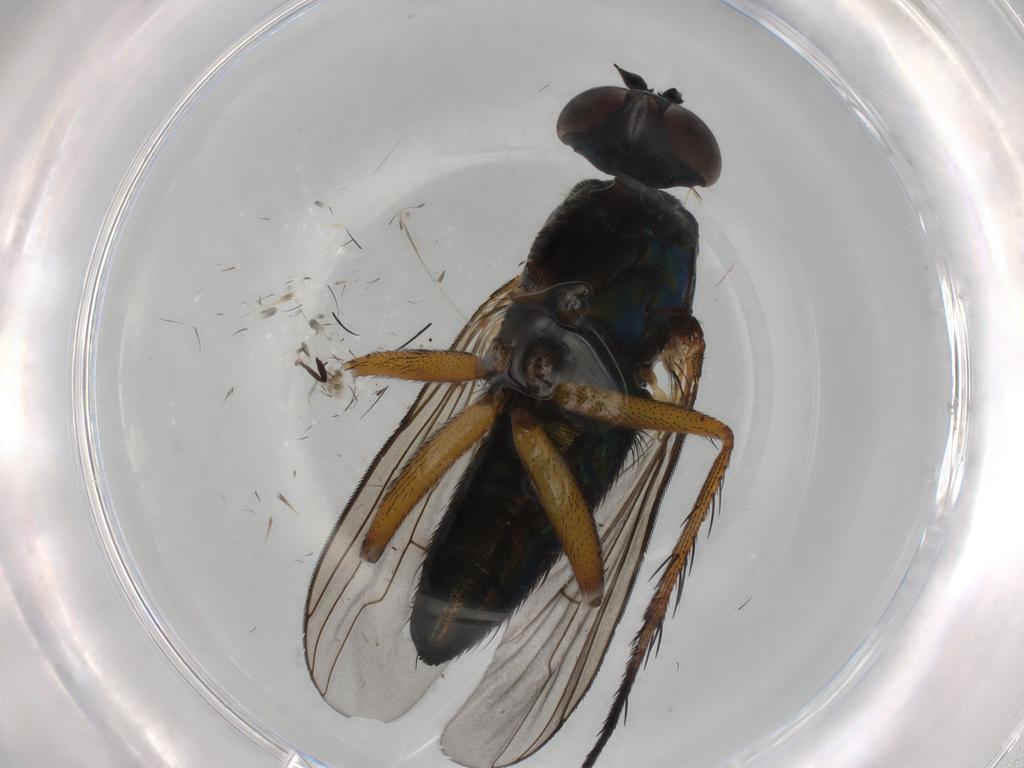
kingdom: Animalia
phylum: Arthropoda
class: Insecta
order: Diptera
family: Dolichopodidae
